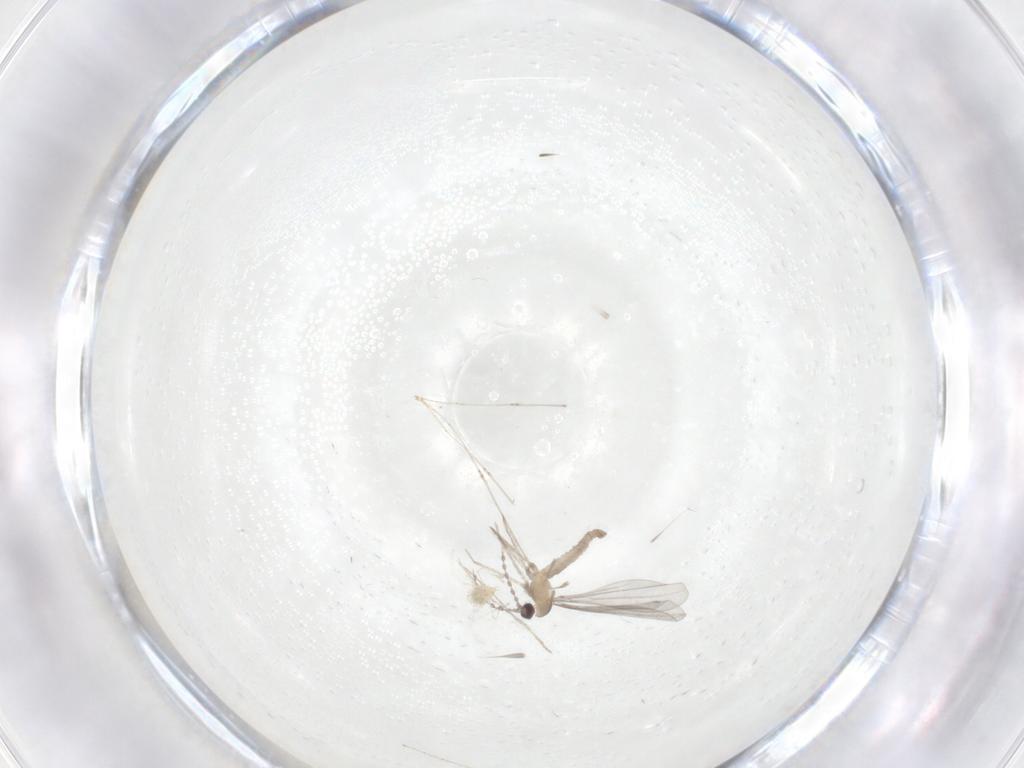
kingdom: Animalia
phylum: Arthropoda
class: Insecta
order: Diptera
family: Cecidomyiidae
